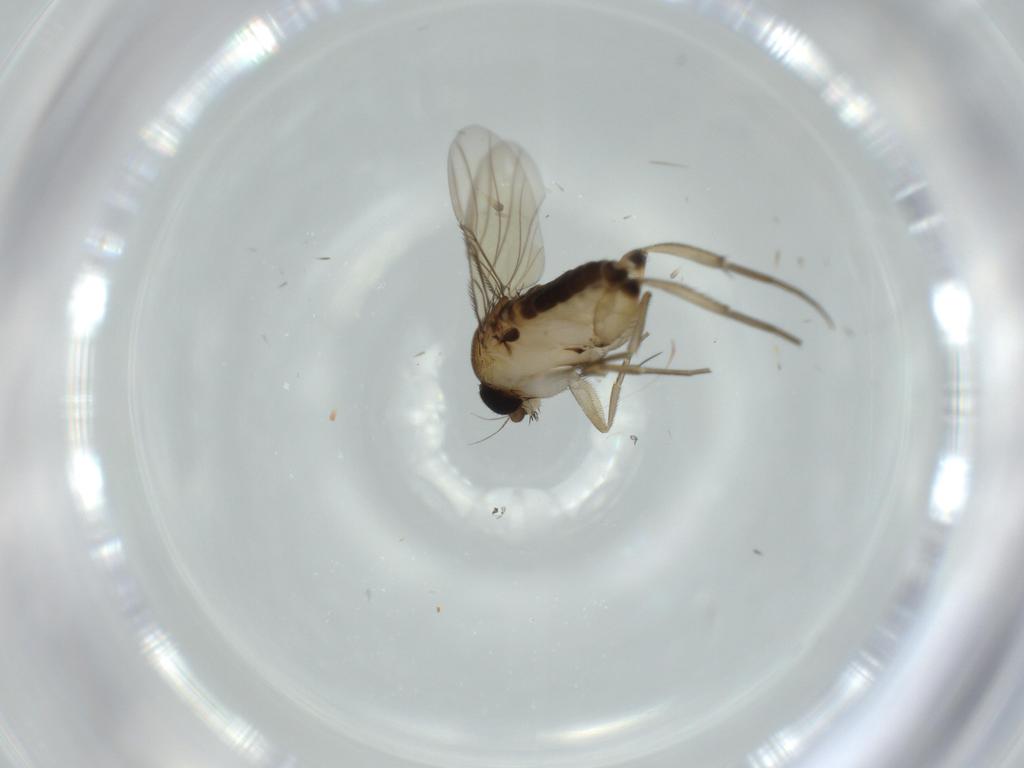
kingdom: Animalia
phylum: Arthropoda
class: Insecta
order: Diptera
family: Phoridae
